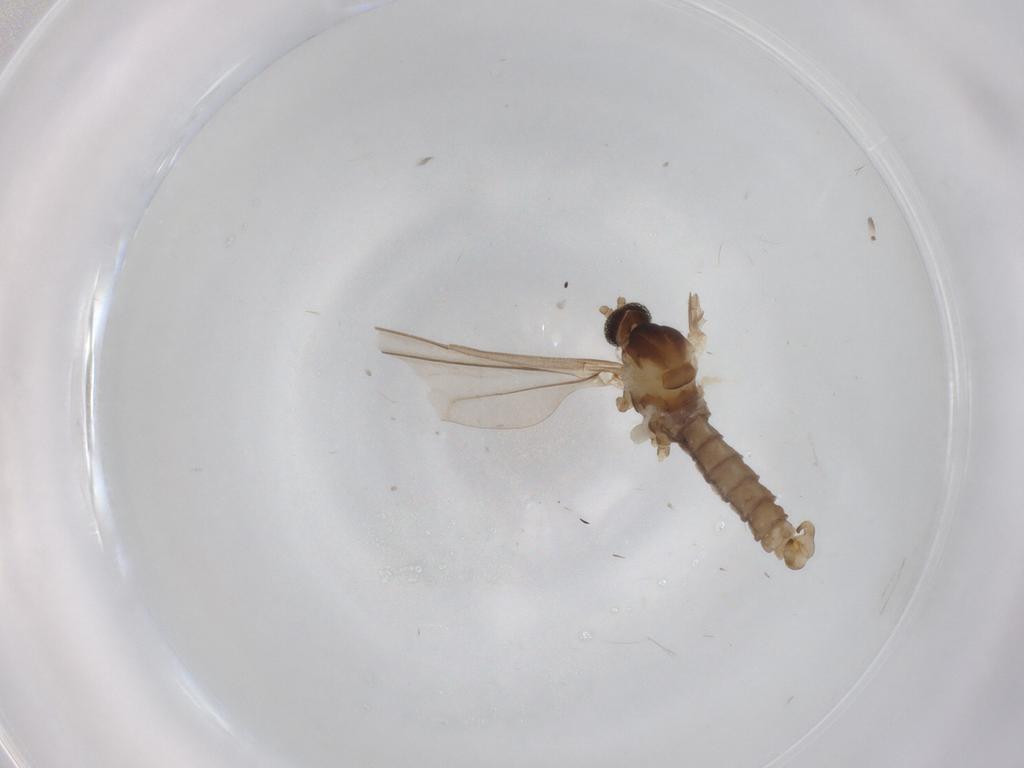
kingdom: Animalia
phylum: Arthropoda
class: Insecta
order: Diptera
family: Cecidomyiidae
